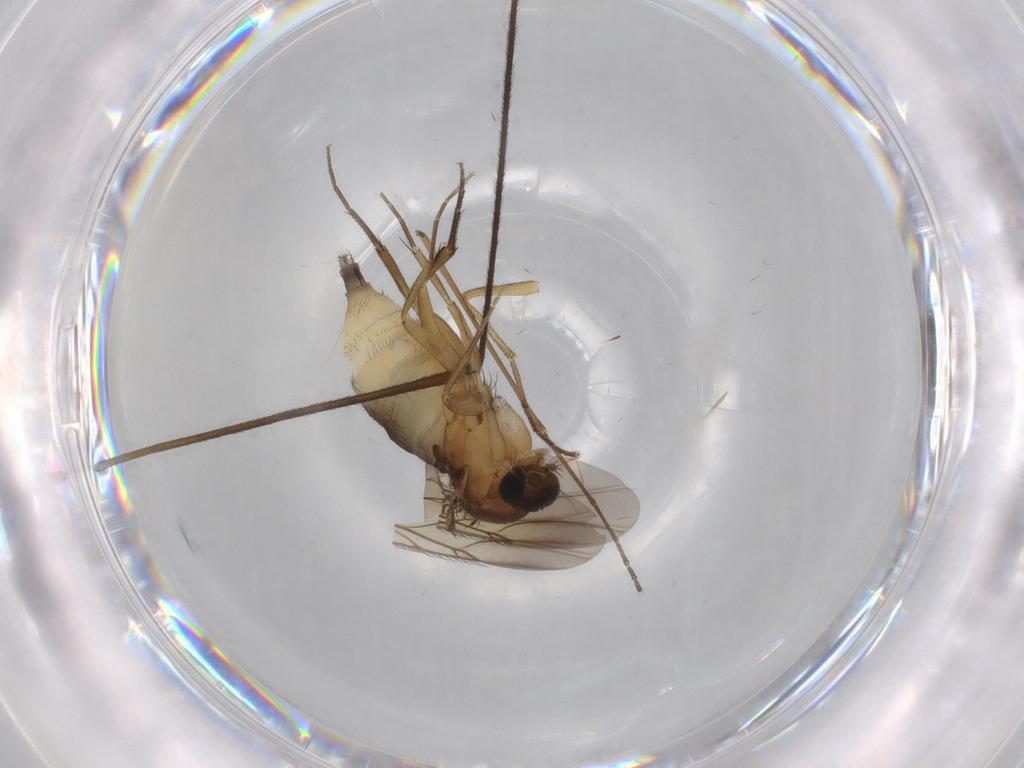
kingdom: Animalia
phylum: Arthropoda
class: Insecta
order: Diptera
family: Phoridae
